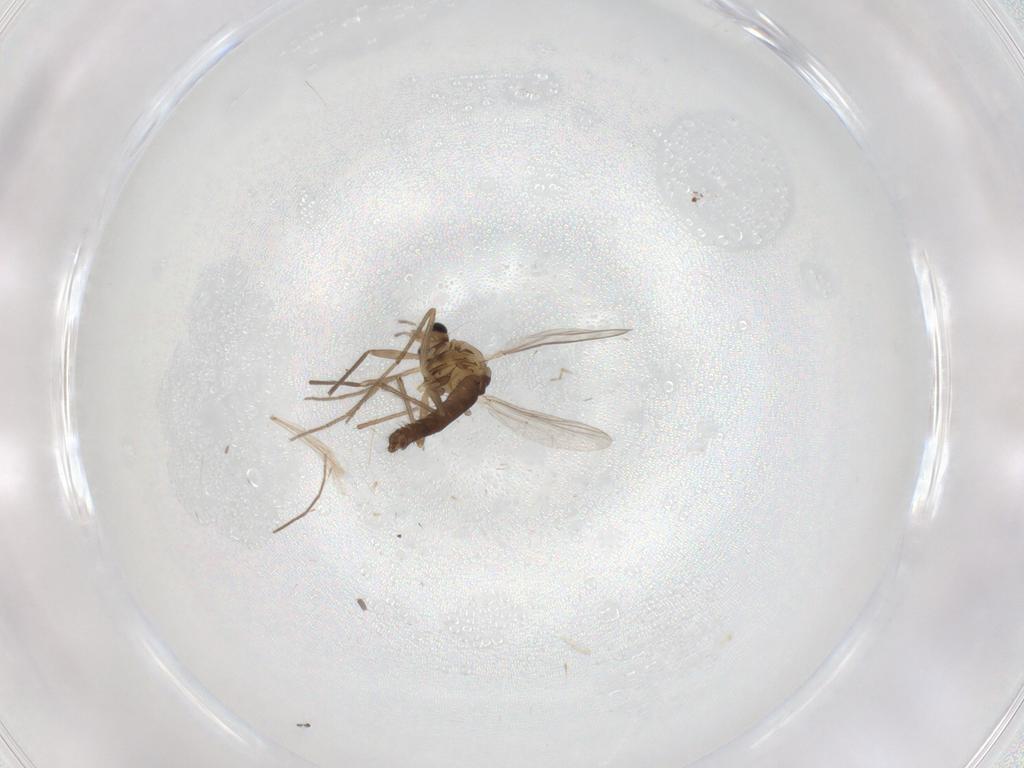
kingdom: Animalia
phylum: Arthropoda
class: Insecta
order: Diptera
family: Chironomidae
